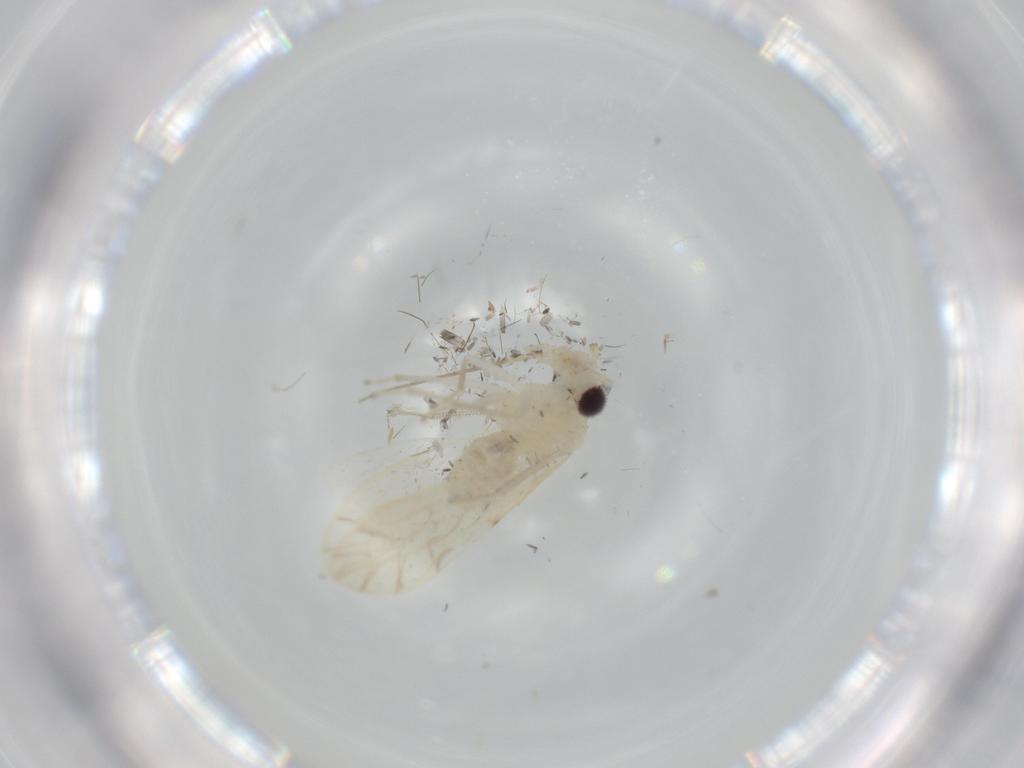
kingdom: Animalia
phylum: Arthropoda
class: Insecta
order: Psocodea
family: Caeciliusidae
